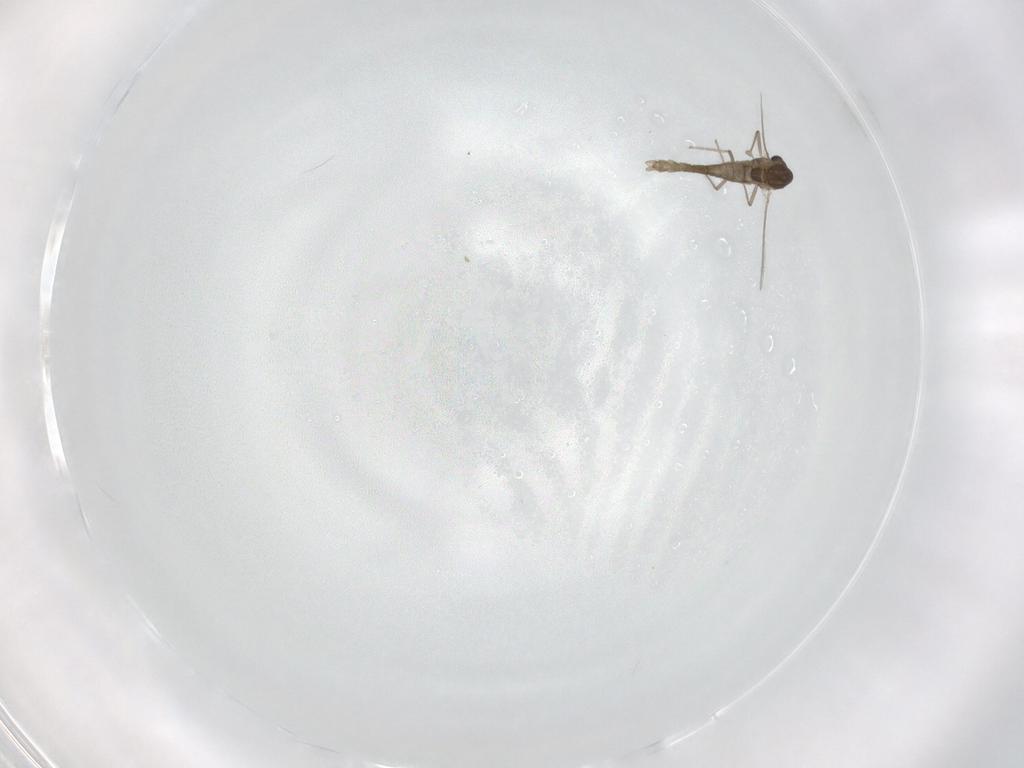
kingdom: Animalia
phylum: Arthropoda
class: Insecta
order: Diptera
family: Chironomidae
